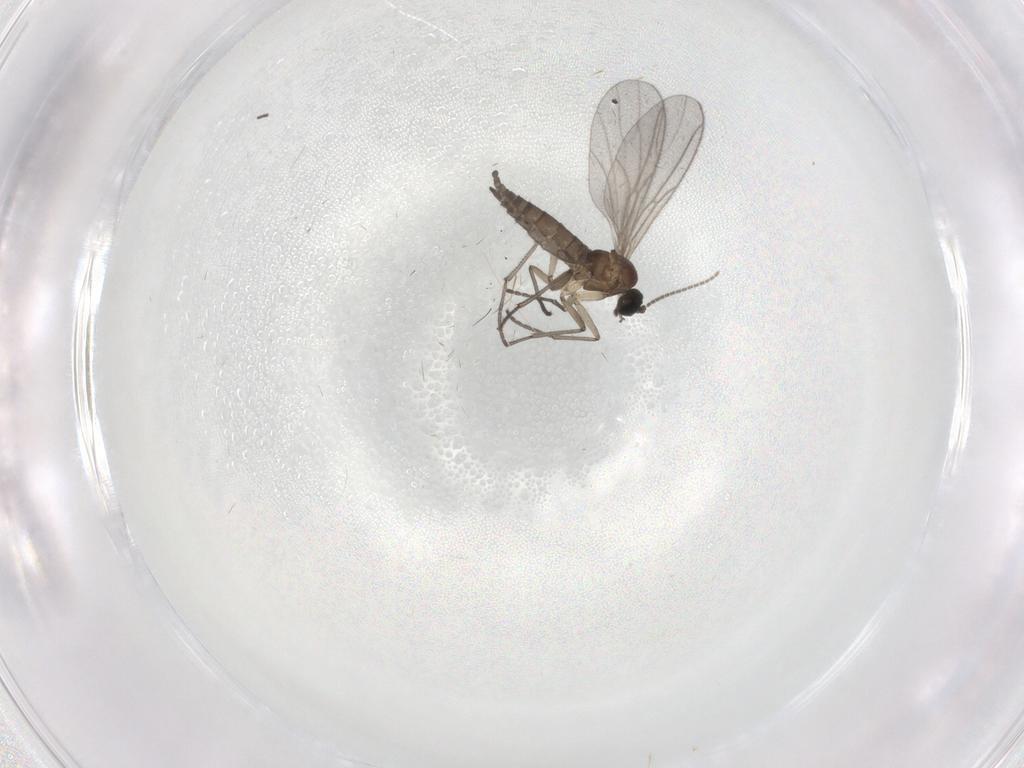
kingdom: Animalia
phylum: Arthropoda
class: Insecta
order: Diptera
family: Sciaridae
